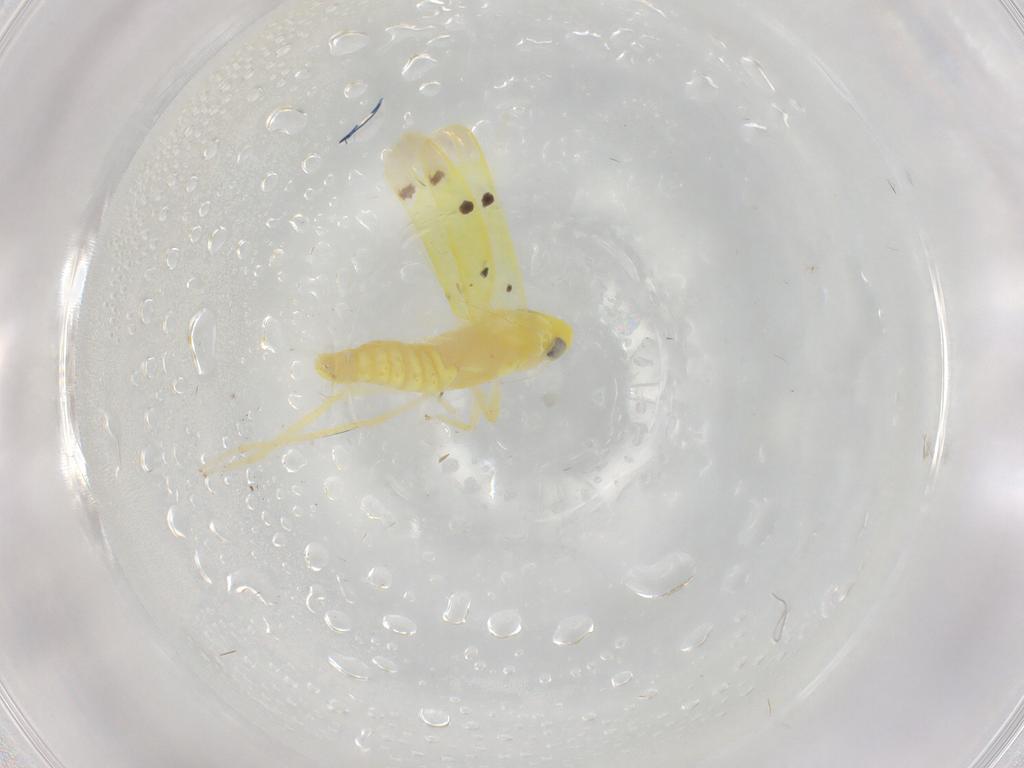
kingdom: Animalia
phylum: Arthropoda
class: Insecta
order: Hemiptera
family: Cicadellidae
